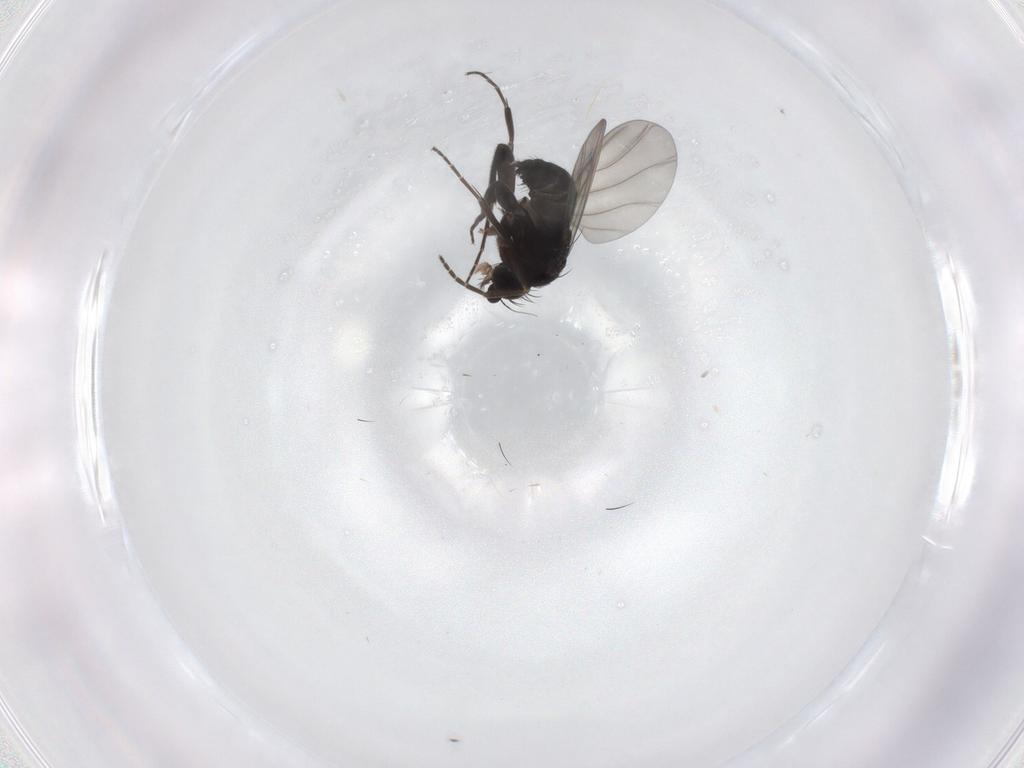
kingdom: Animalia
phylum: Arthropoda
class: Insecta
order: Diptera
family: Phoridae
